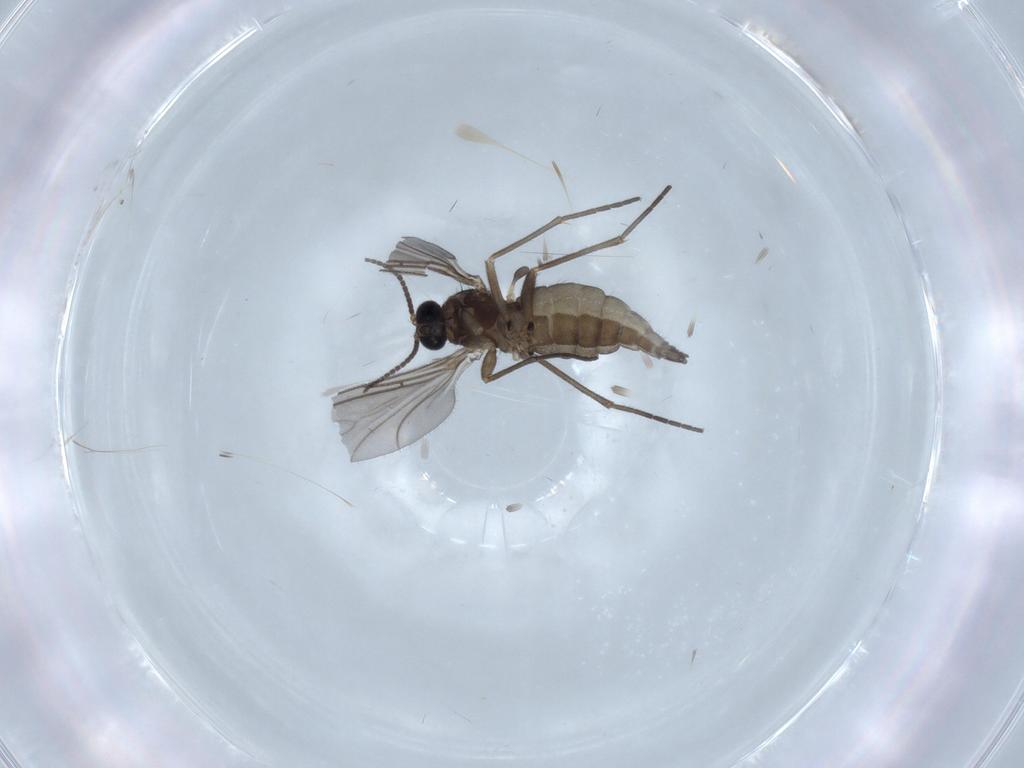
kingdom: Animalia
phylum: Arthropoda
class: Insecta
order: Diptera
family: Sciaridae
